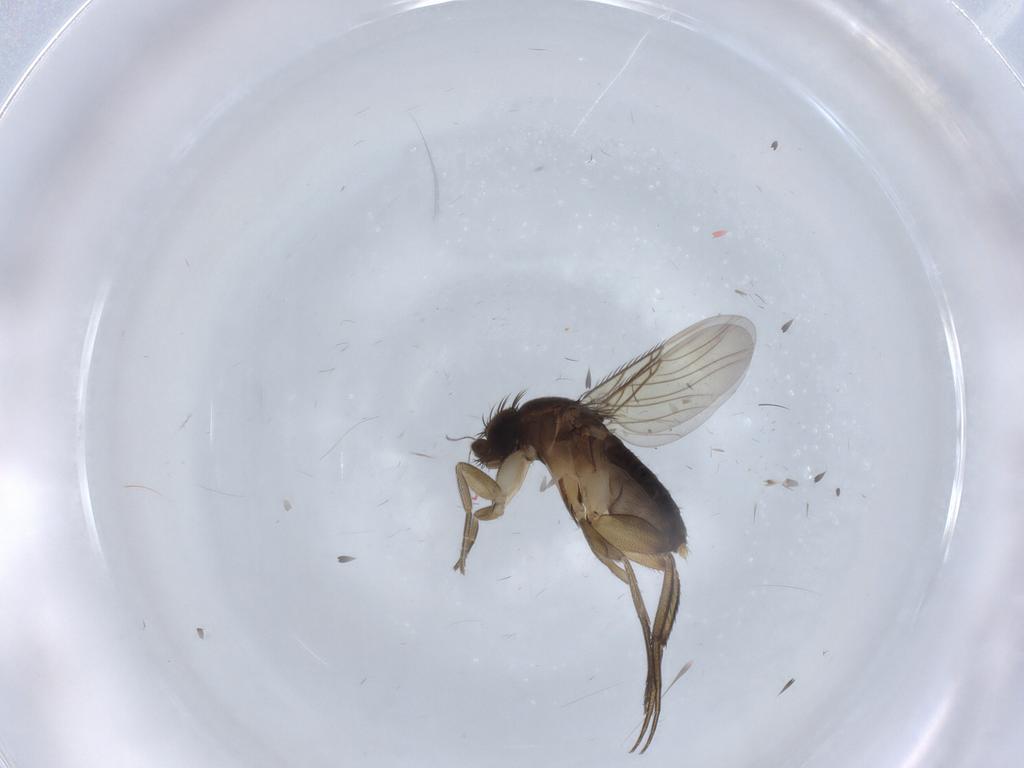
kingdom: Animalia
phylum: Arthropoda
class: Insecta
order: Diptera
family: Phoridae
